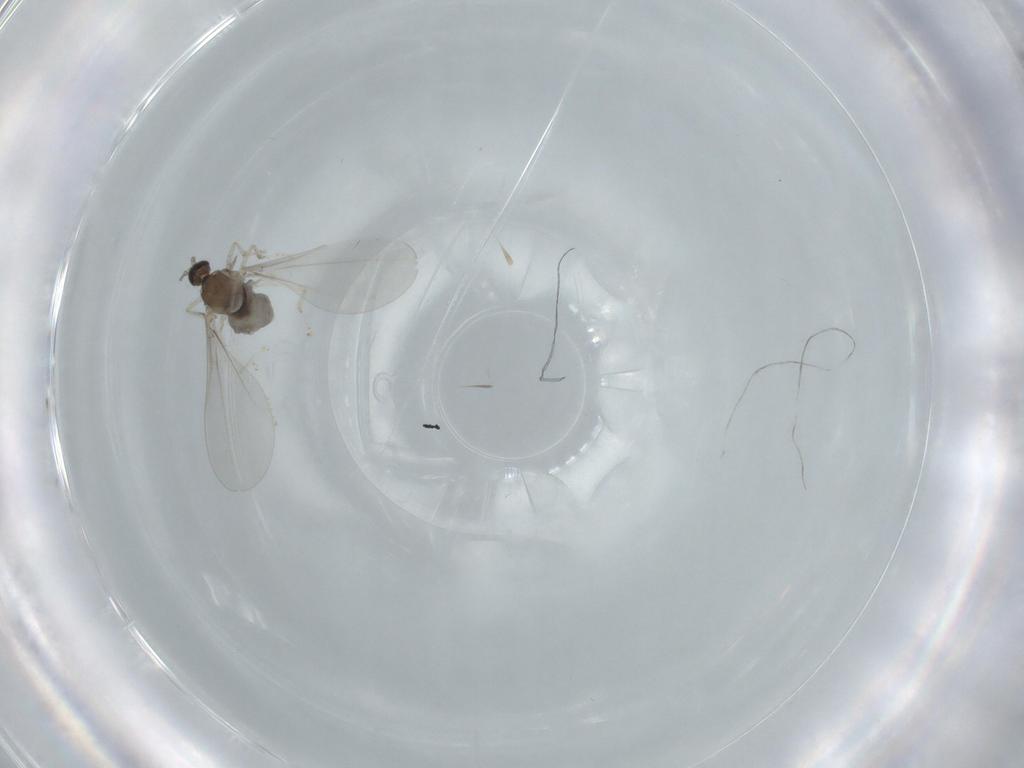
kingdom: Animalia
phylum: Arthropoda
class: Insecta
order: Diptera
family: Cecidomyiidae
